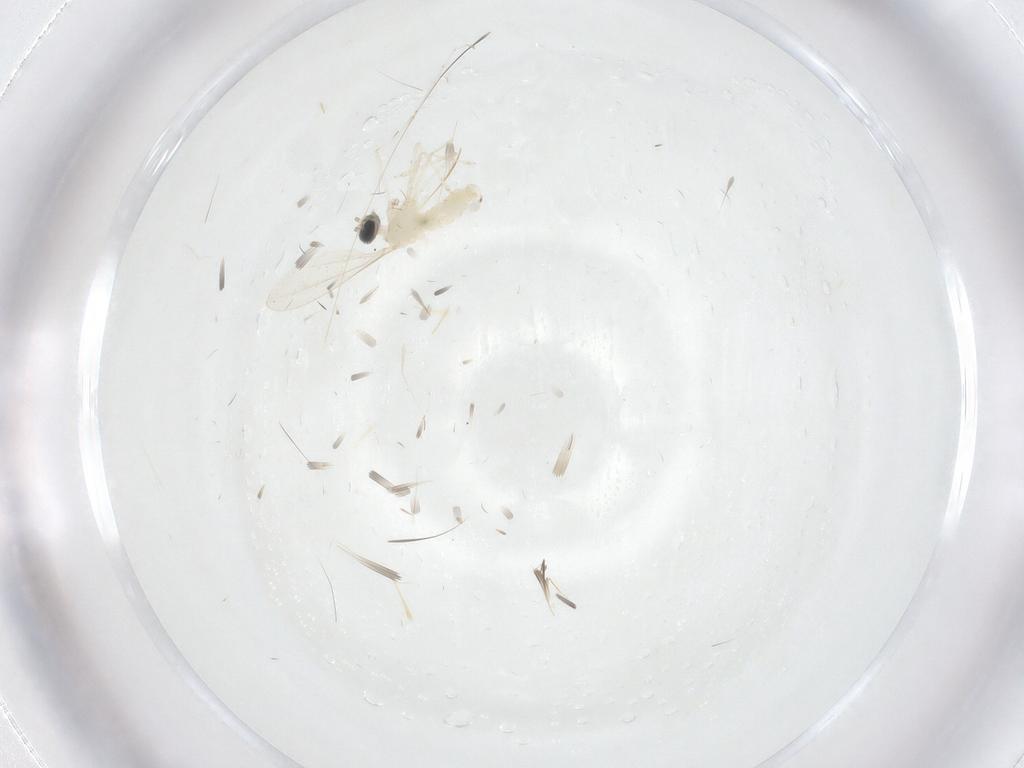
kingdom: Animalia
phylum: Arthropoda
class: Insecta
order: Diptera
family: Cecidomyiidae
